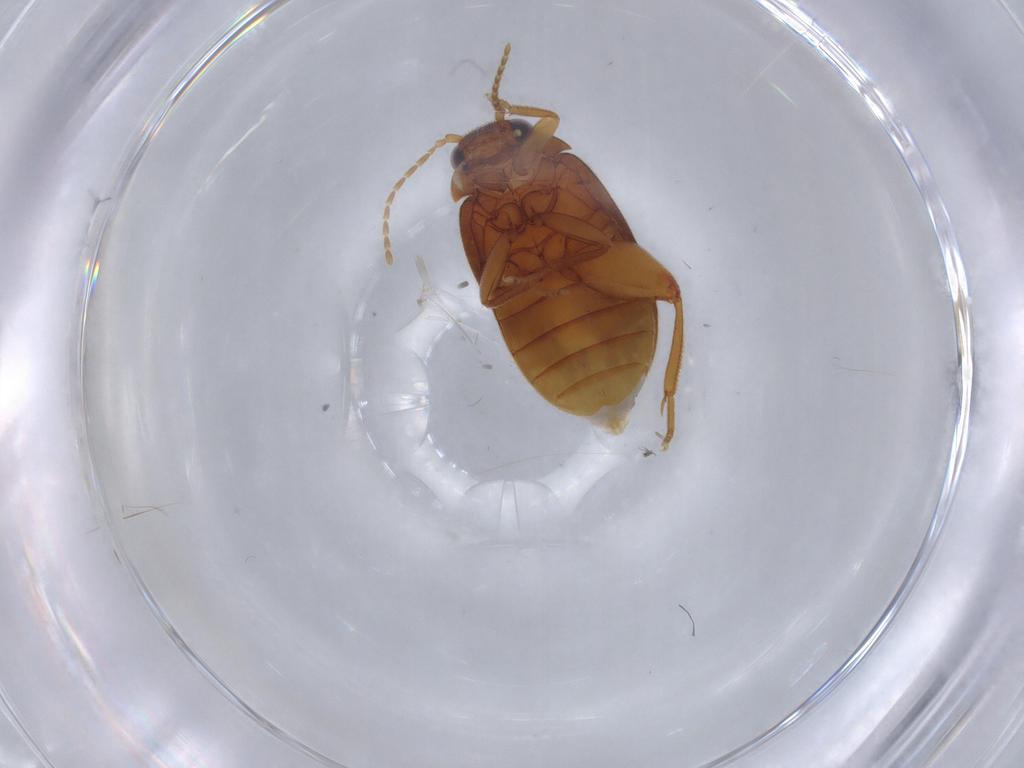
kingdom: Animalia
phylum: Arthropoda
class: Insecta
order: Coleoptera
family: Scirtidae
